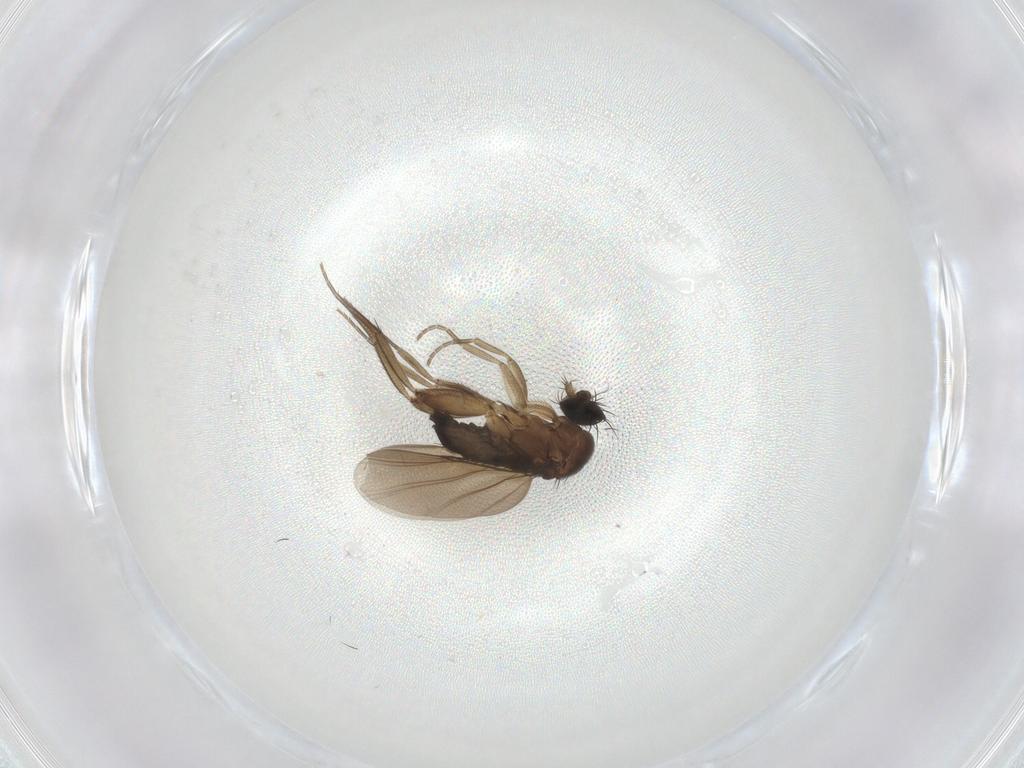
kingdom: Animalia
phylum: Arthropoda
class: Insecta
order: Diptera
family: Phoridae
